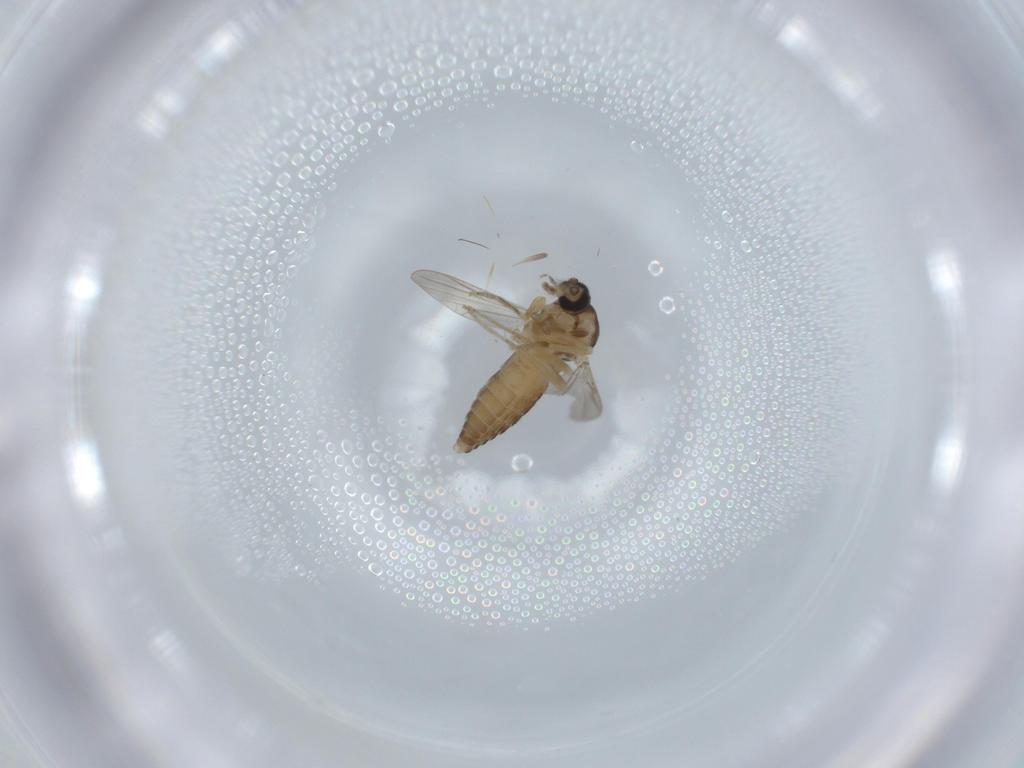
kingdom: Animalia
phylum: Arthropoda
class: Insecta
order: Diptera
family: Ceratopogonidae
